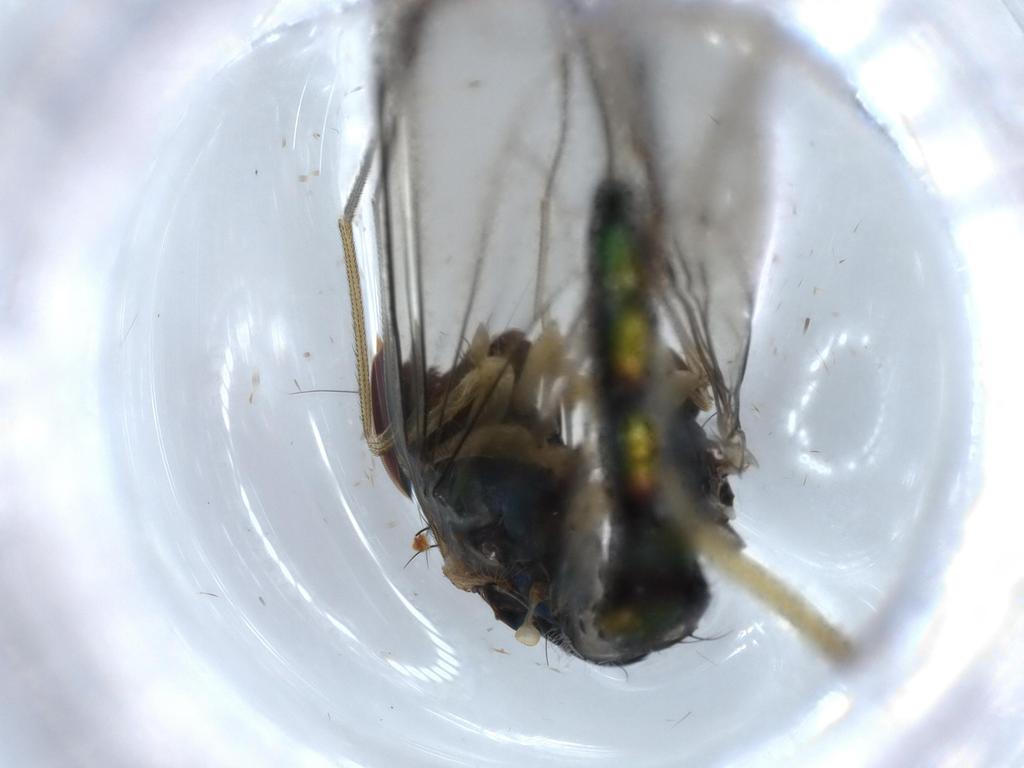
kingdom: Animalia
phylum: Arthropoda
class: Insecta
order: Diptera
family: Dolichopodidae
